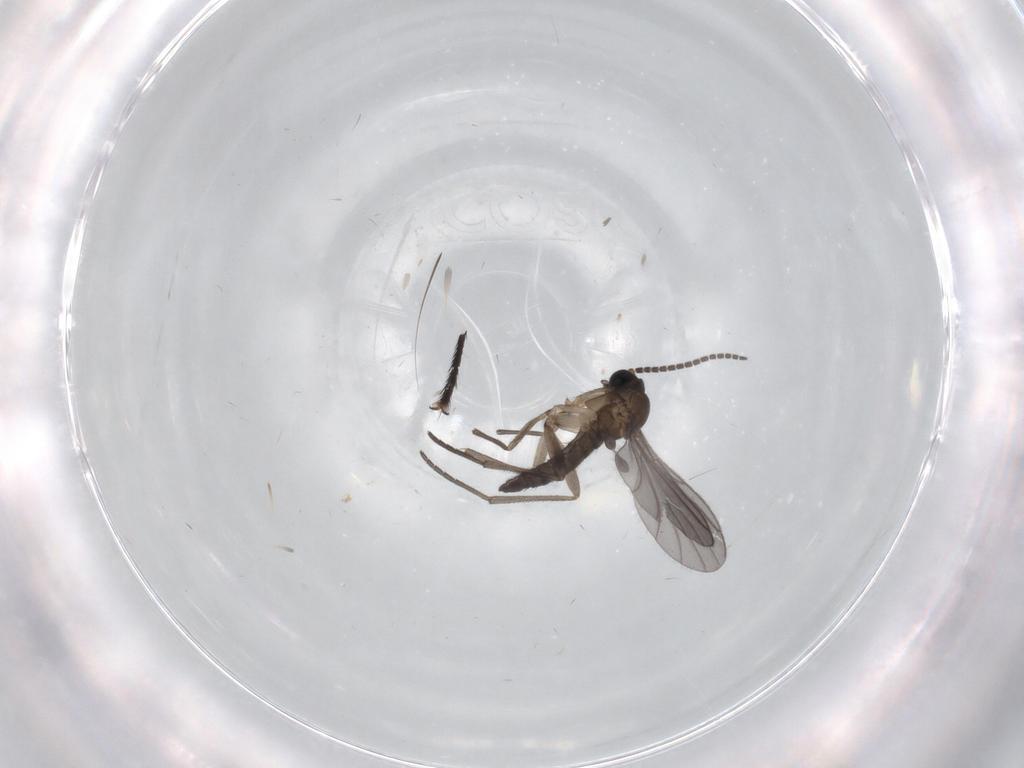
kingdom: Animalia
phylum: Arthropoda
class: Insecta
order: Diptera
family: Sciaridae
